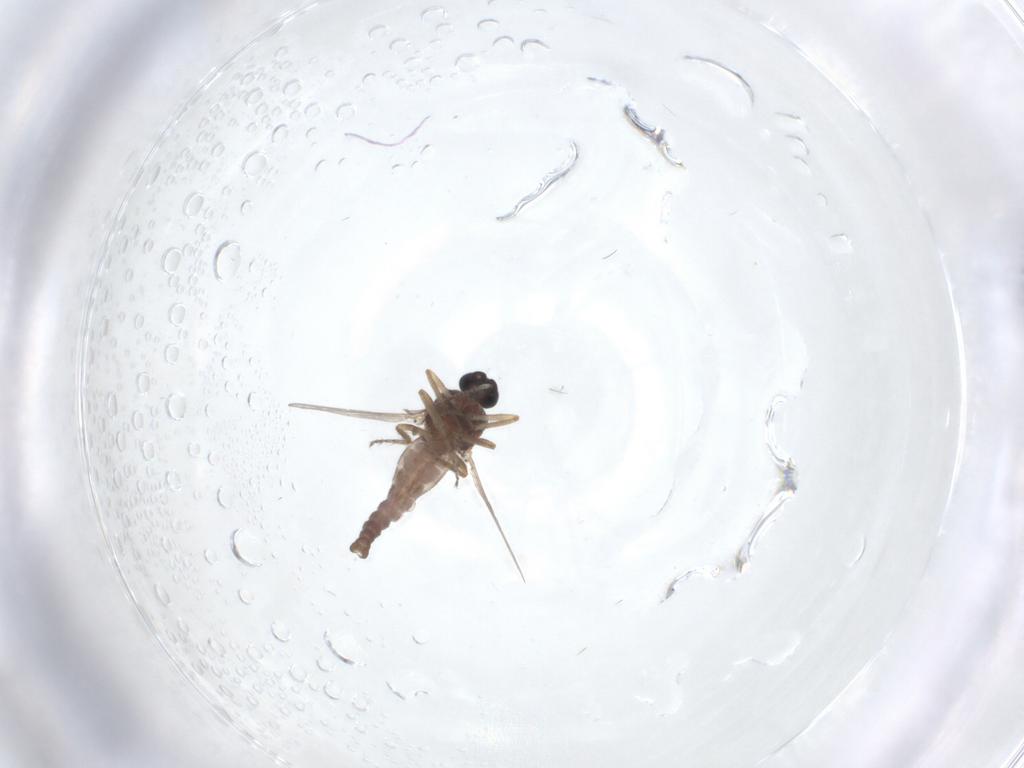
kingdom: Animalia
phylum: Arthropoda
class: Insecta
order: Diptera
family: Ceratopogonidae
